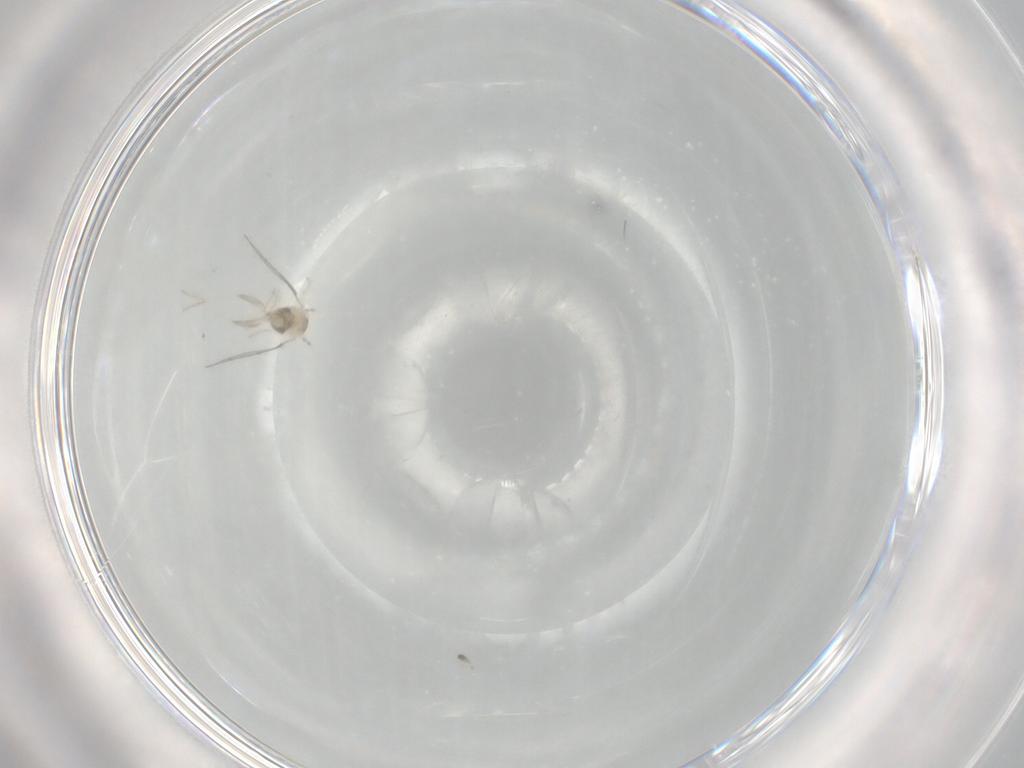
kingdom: Animalia
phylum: Arthropoda
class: Insecta
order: Diptera
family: Cecidomyiidae
